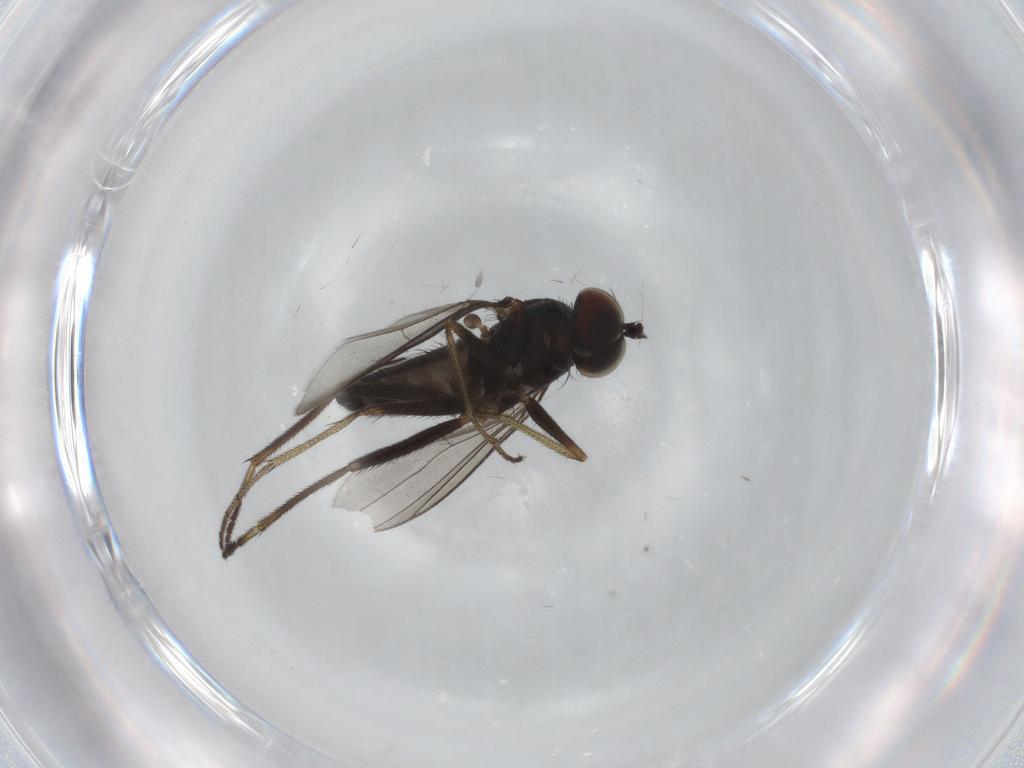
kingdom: Animalia
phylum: Arthropoda
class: Insecta
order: Diptera
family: Dolichopodidae
